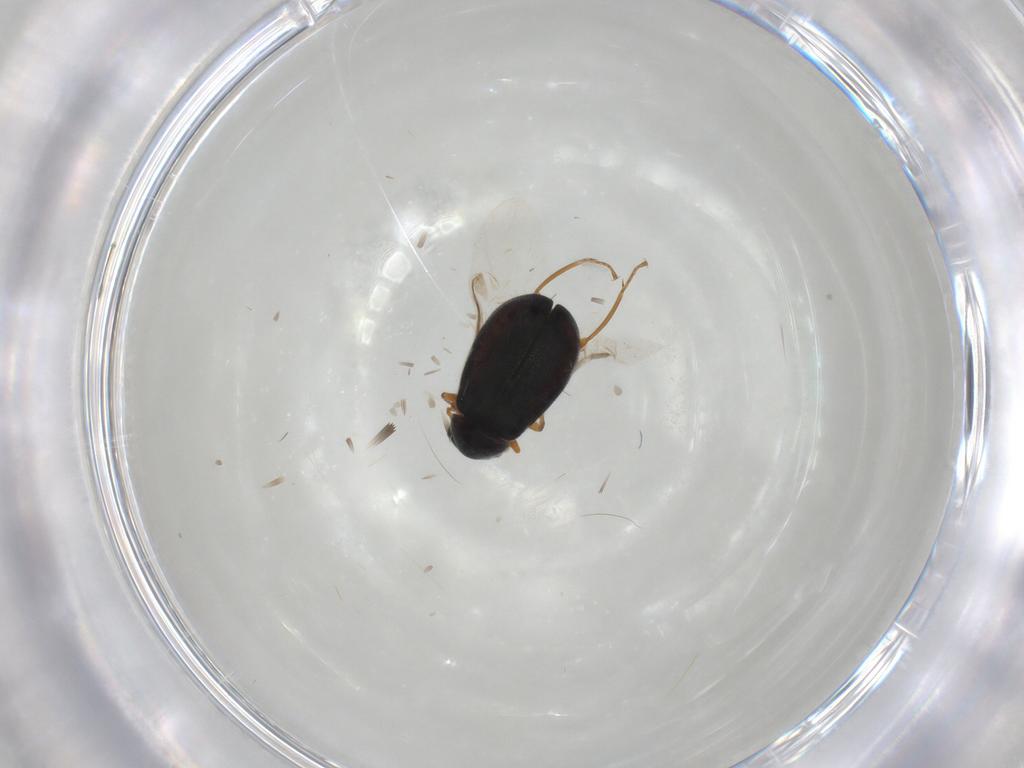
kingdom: Animalia
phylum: Arthropoda
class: Insecta
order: Coleoptera
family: Melyridae
